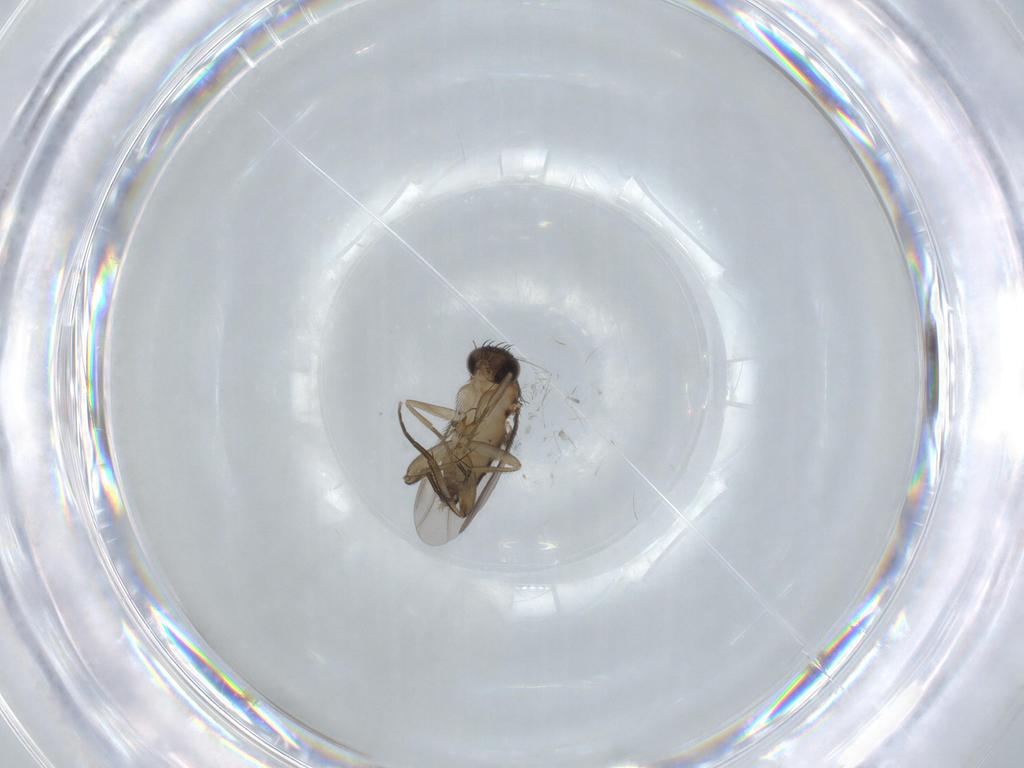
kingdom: Animalia
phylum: Arthropoda
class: Insecta
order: Diptera
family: Phoridae
